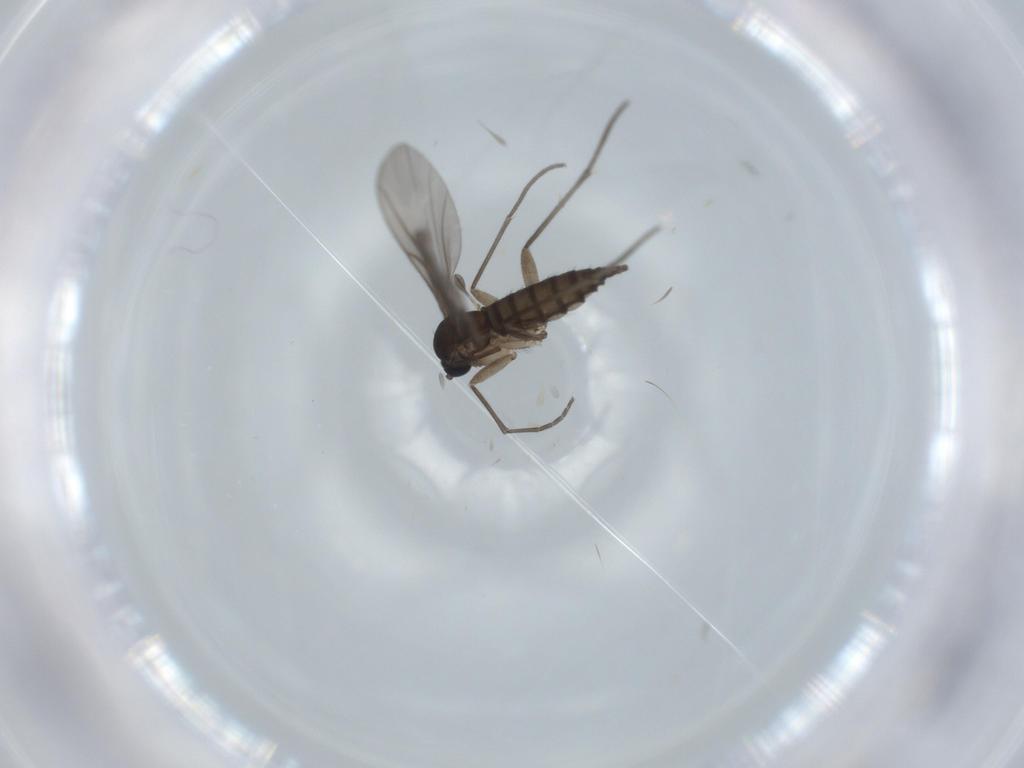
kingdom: Animalia
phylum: Arthropoda
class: Insecta
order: Diptera
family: Sciaridae
